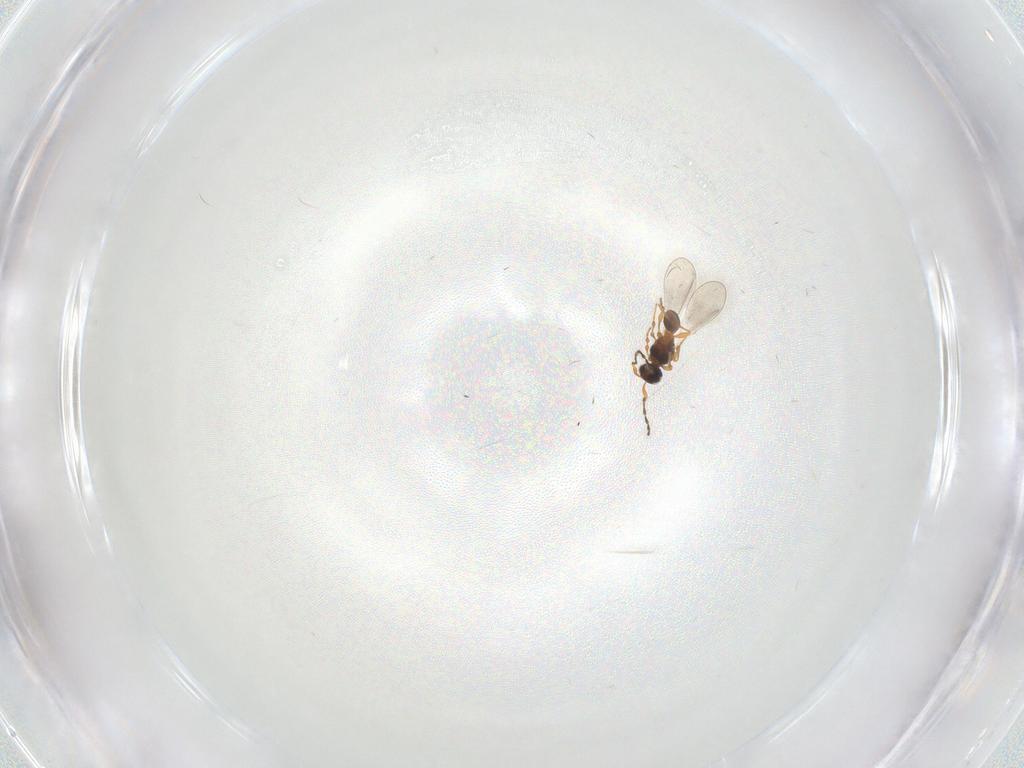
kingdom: Animalia
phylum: Arthropoda
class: Insecta
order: Hymenoptera
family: Platygastridae
